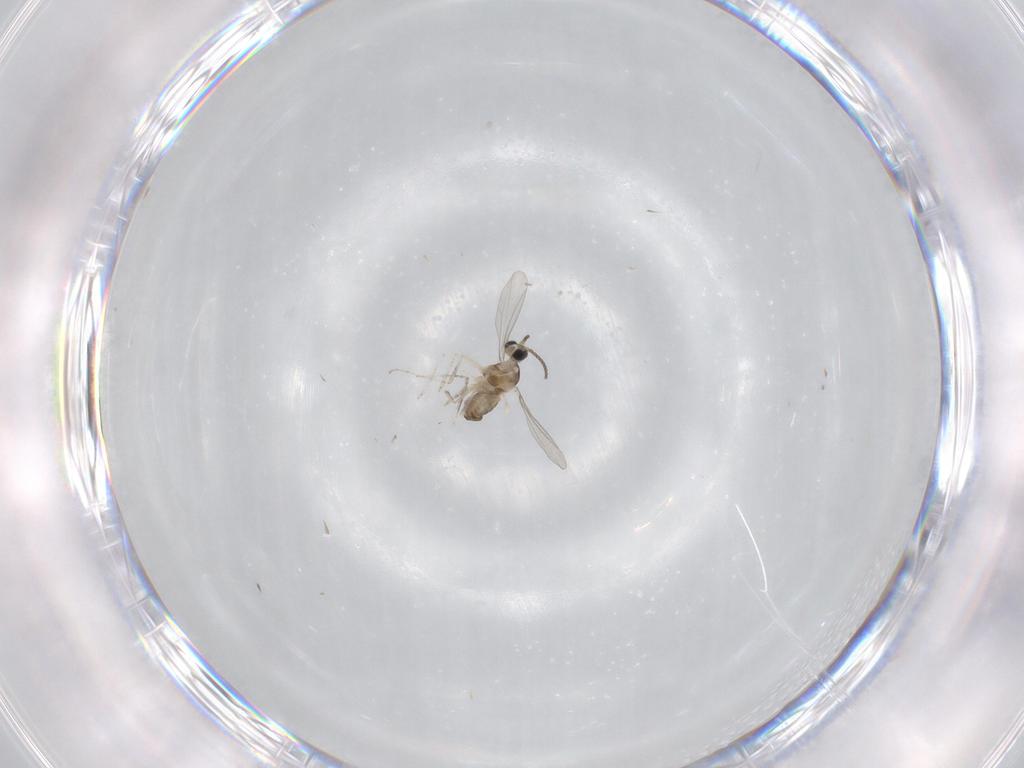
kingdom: Animalia
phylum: Arthropoda
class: Insecta
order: Diptera
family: Cecidomyiidae
